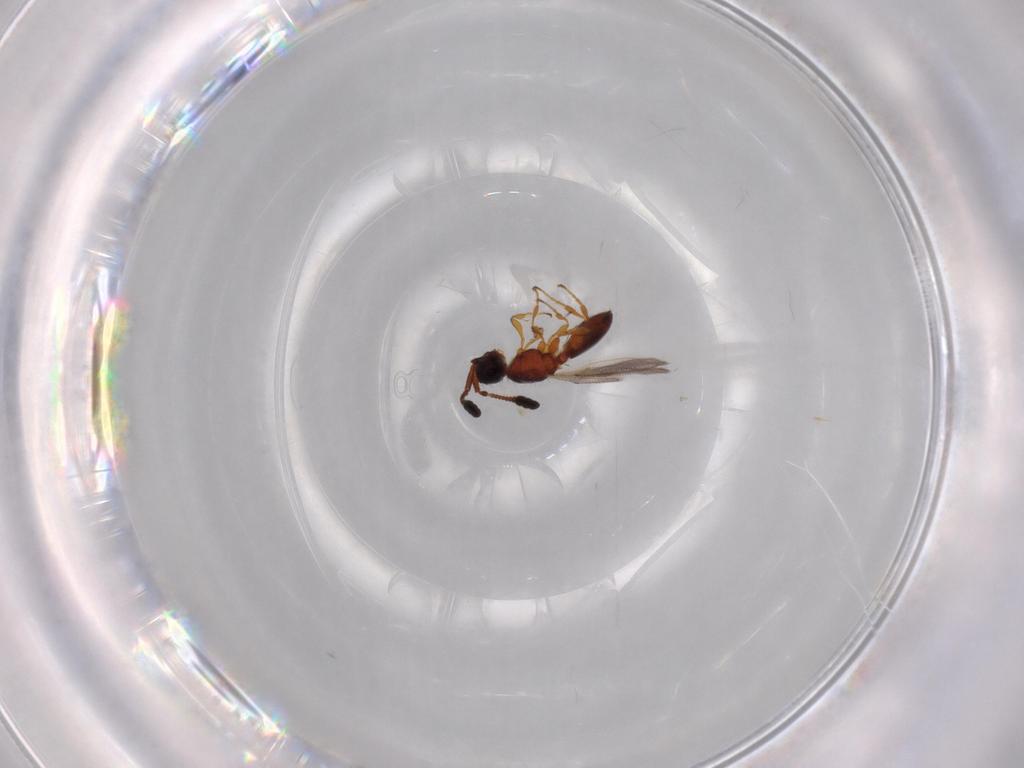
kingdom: Animalia
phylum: Arthropoda
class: Insecta
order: Hymenoptera
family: Diapriidae
